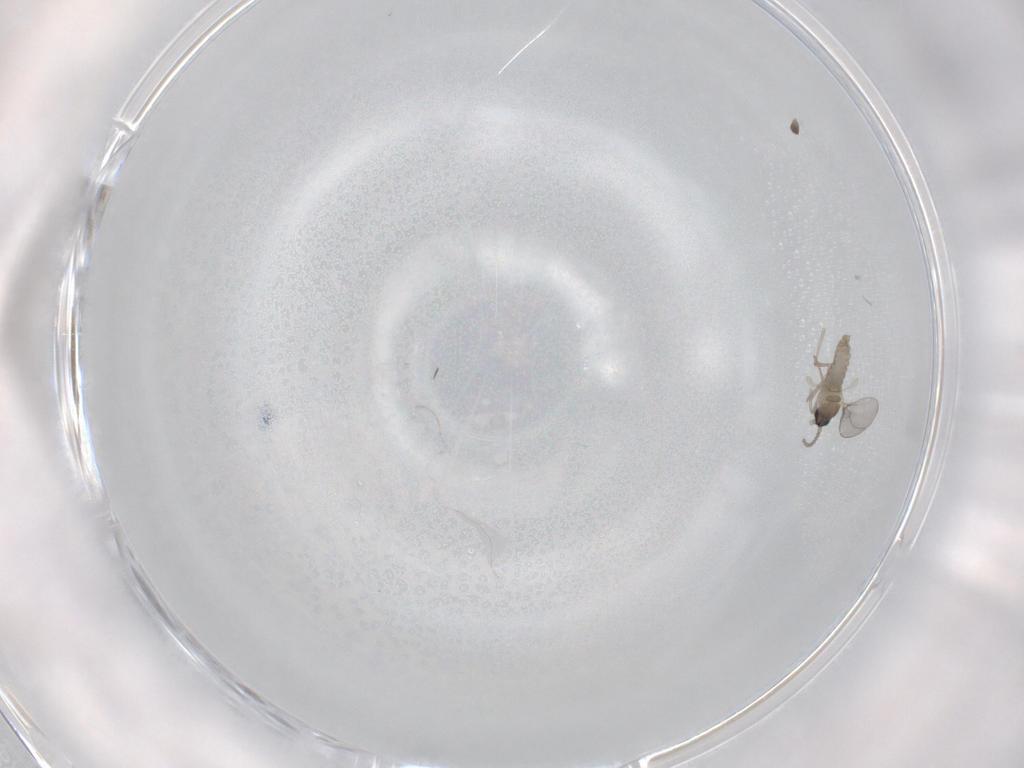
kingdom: Animalia
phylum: Arthropoda
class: Insecta
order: Diptera
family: Cecidomyiidae
